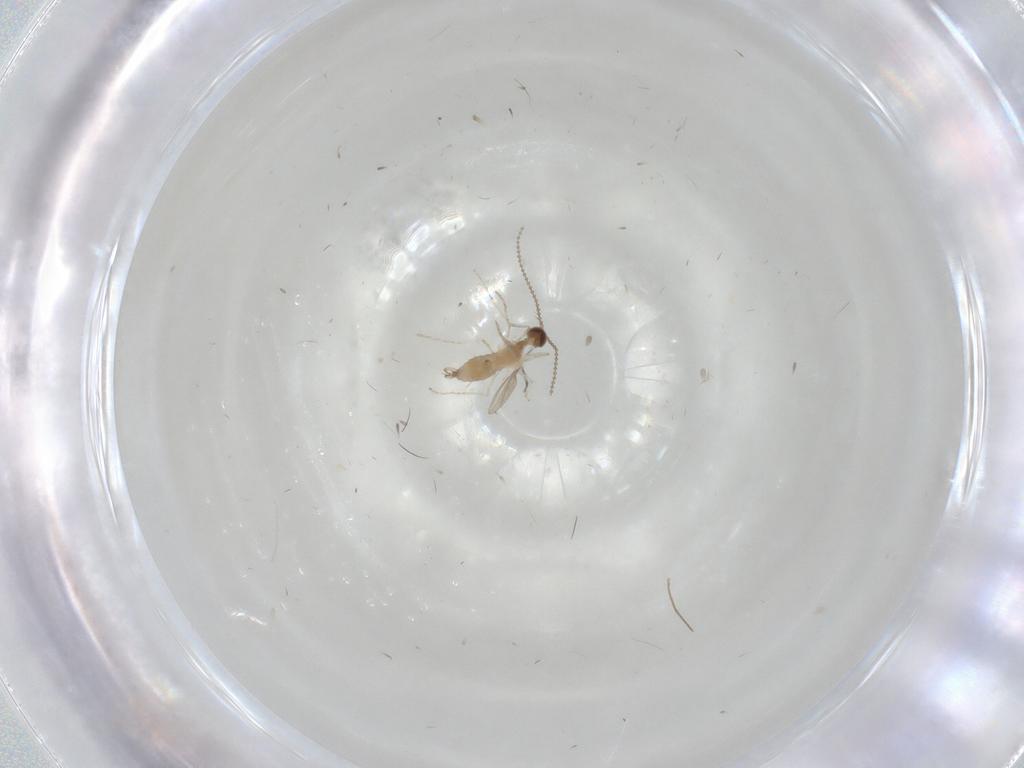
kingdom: Animalia
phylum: Arthropoda
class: Insecta
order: Diptera
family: Cecidomyiidae
